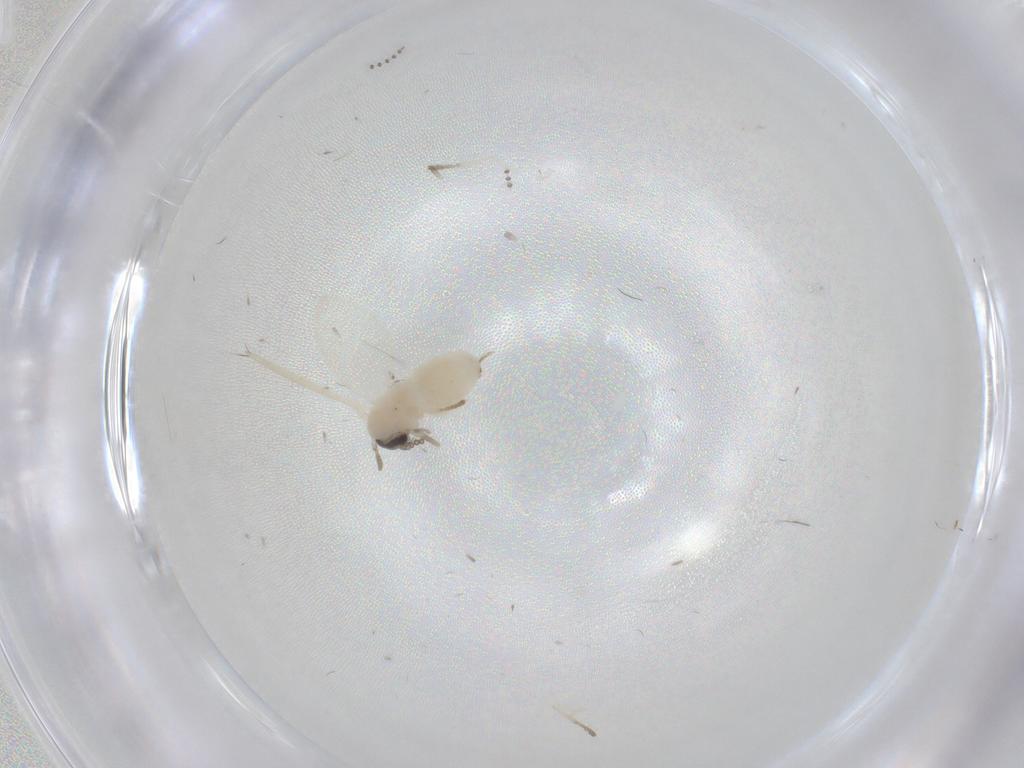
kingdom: Animalia
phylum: Arthropoda
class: Insecta
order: Diptera
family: Psychodidae
